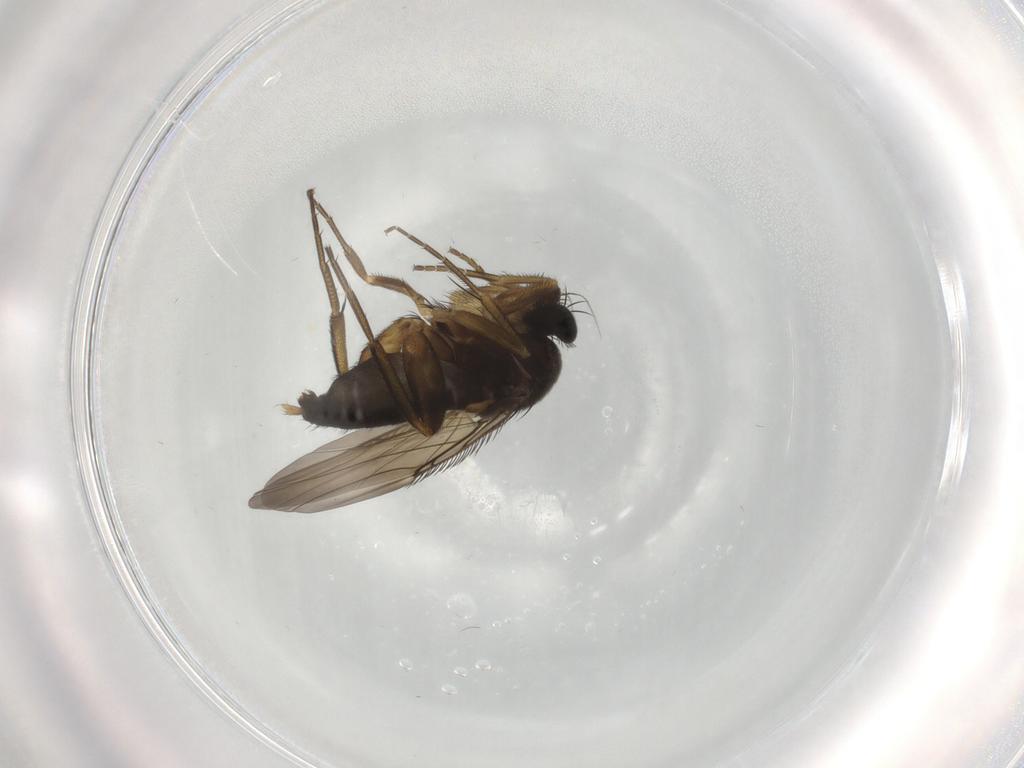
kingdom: Animalia
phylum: Arthropoda
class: Insecta
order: Diptera
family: Phoridae
